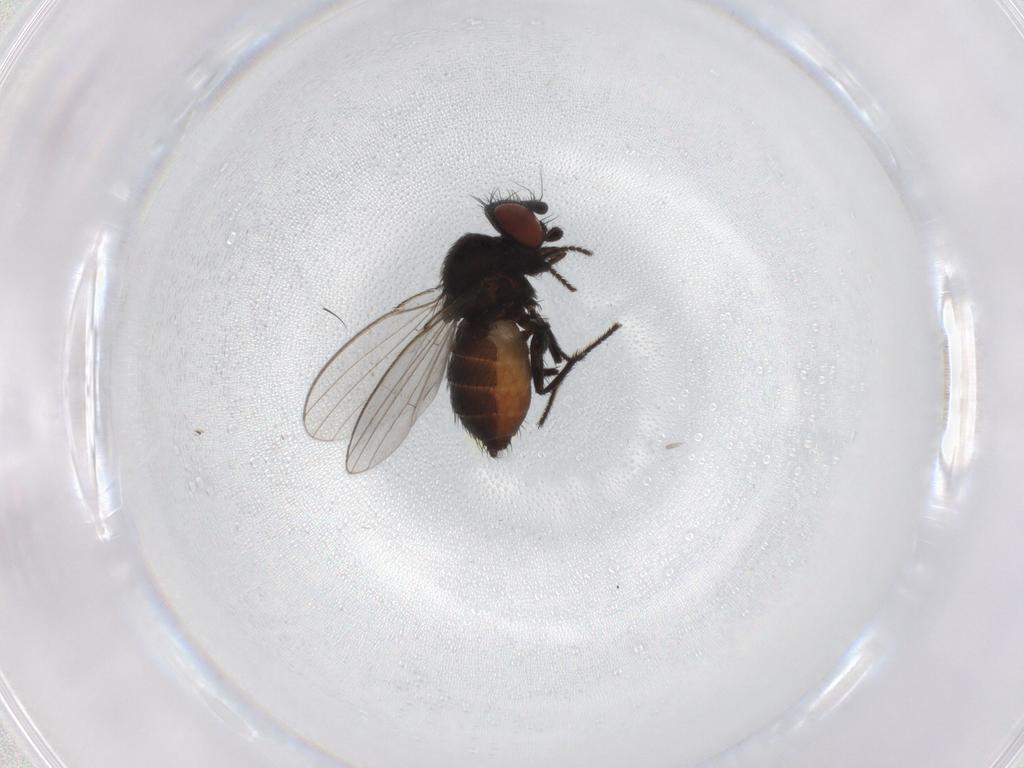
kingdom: Animalia
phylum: Arthropoda
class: Insecta
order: Diptera
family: Milichiidae
